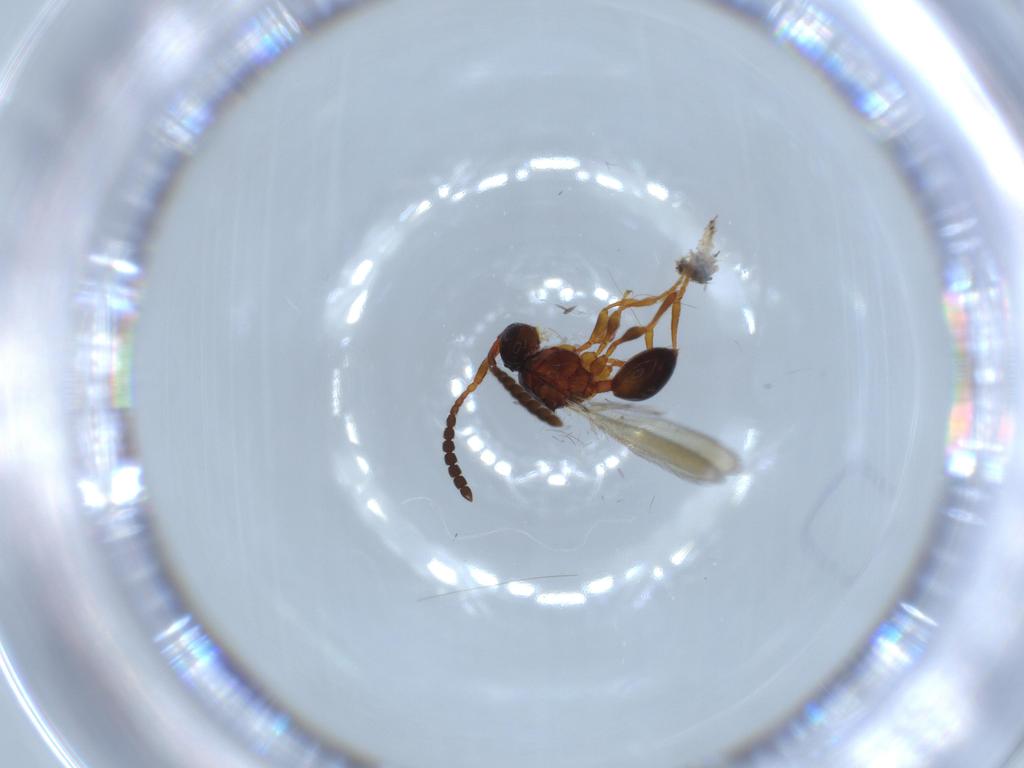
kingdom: Animalia
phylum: Arthropoda
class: Insecta
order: Hymenoptera
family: Diapriidae
